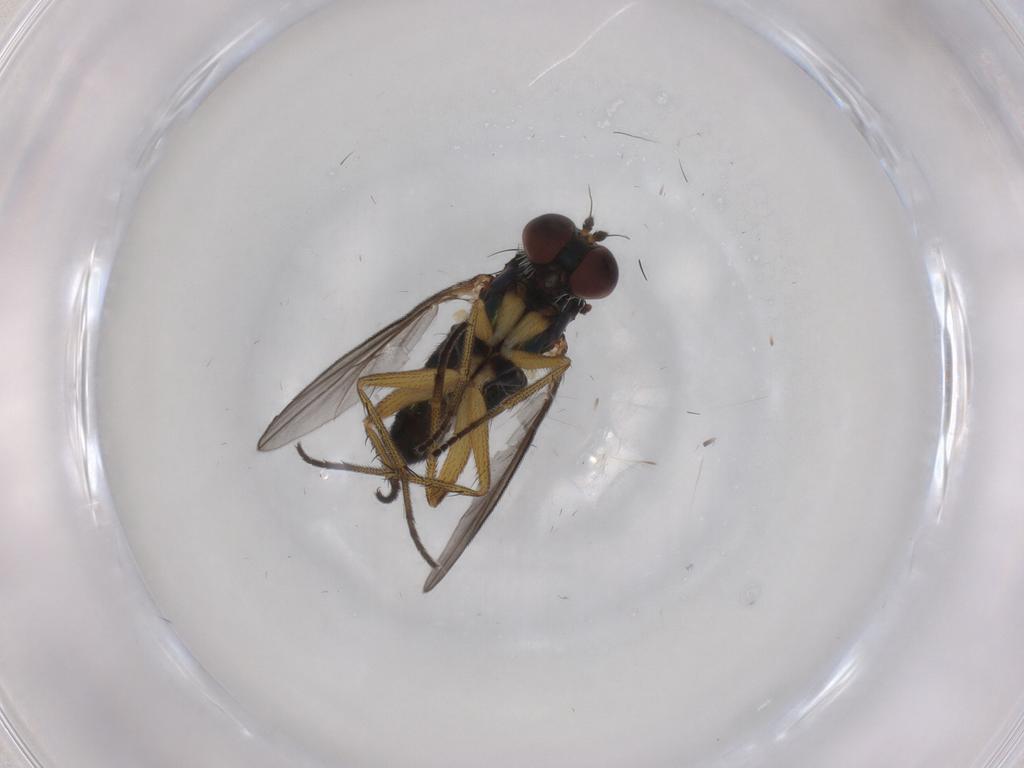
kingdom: Animalia
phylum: Arthropoda
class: Insecta
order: Diptera
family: Dolichopodidae
